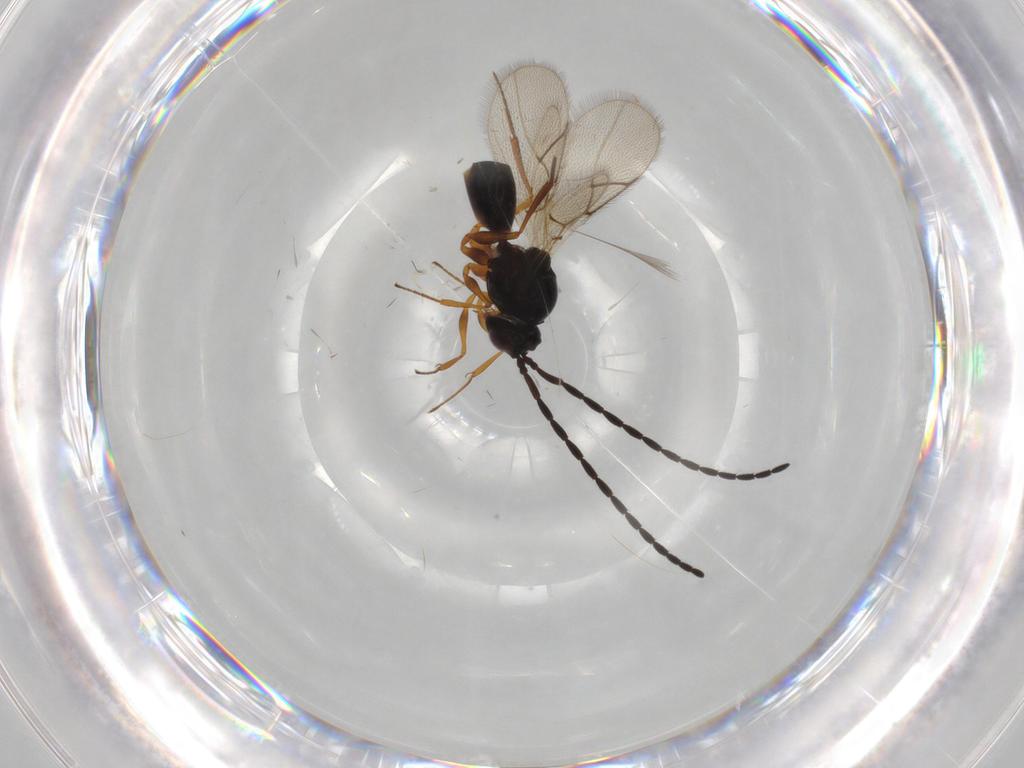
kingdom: Animalia
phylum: Arthropoda
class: Insecta
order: Hymenoptera
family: Figitidae
